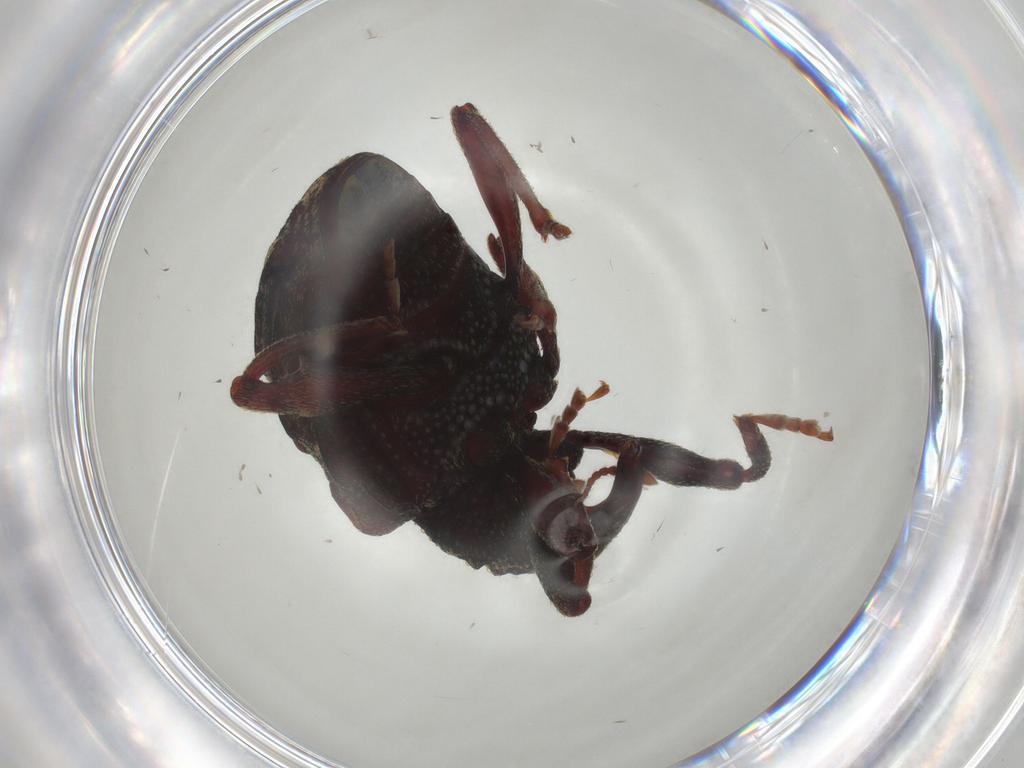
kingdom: Animalia
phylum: Arthropoda
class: Insecta
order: Coleoptera
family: Curculionidae
